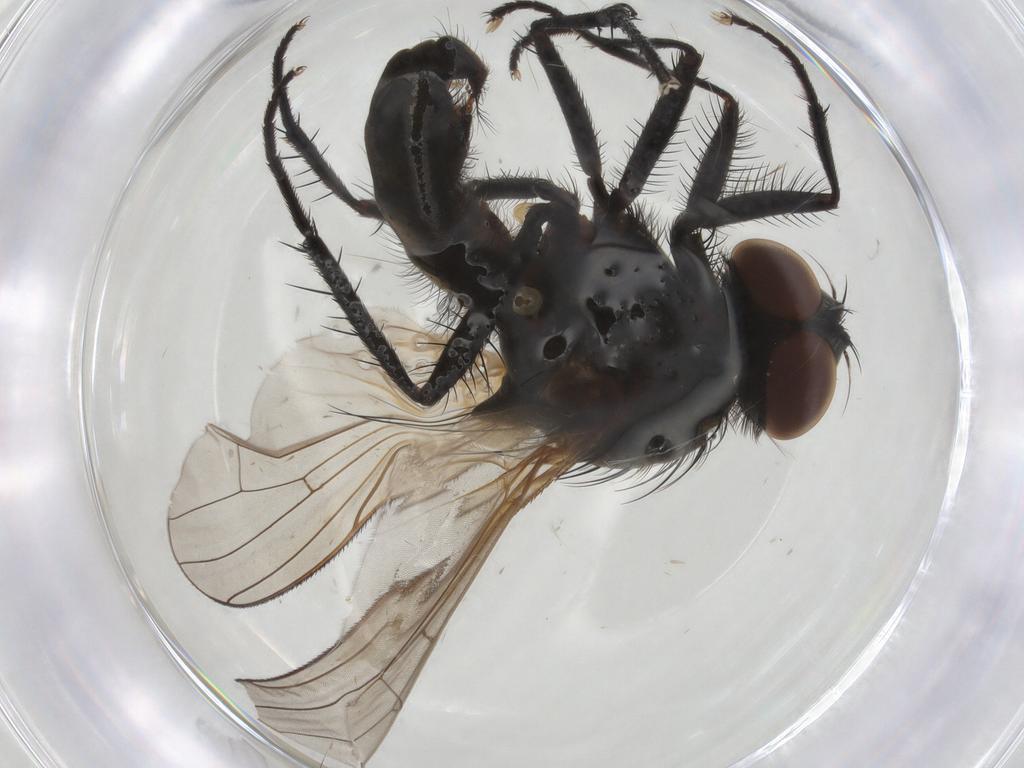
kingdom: Animalia
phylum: Arthropoda
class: Insecta
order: Diptera
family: Anthomyiidae
